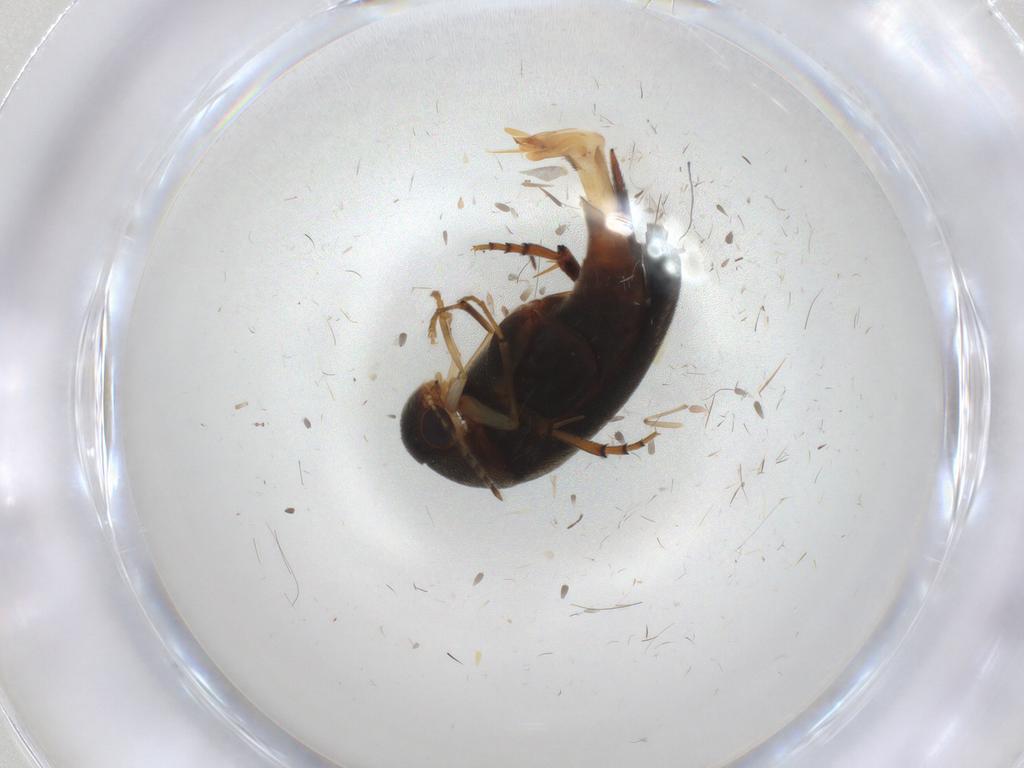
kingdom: Animalia
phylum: Arthropoda
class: Insecta
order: Coleoptera
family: Mordellidae
